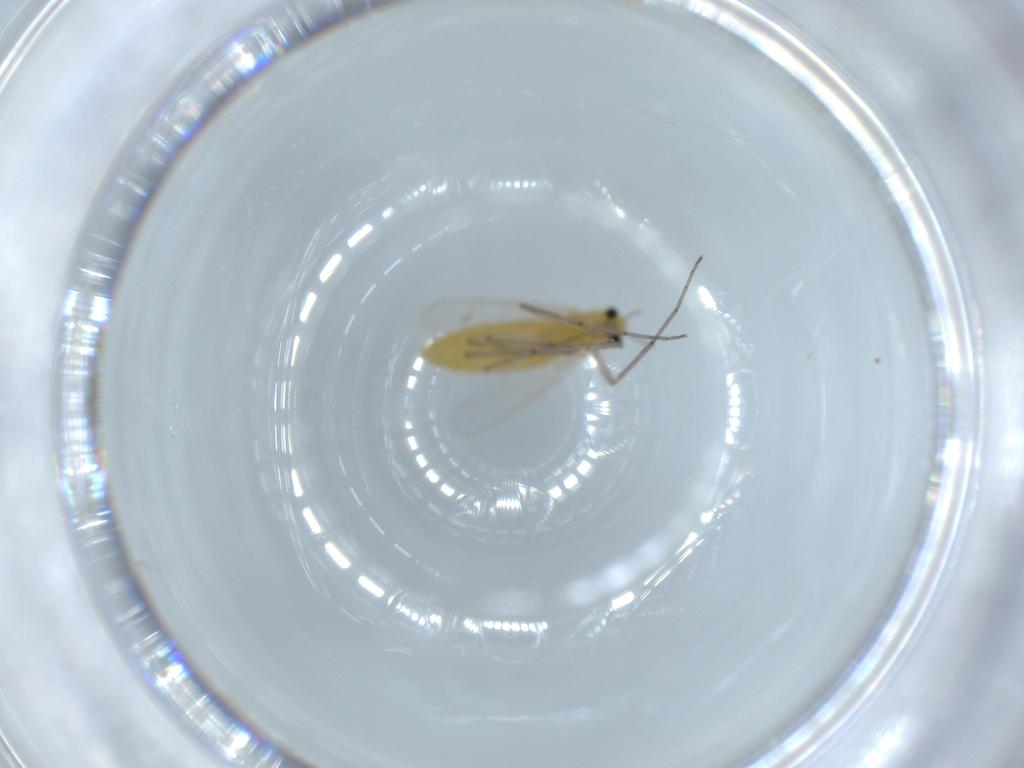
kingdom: Animalia
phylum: Arthropoda
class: Insecta
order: Diptera
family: Chironomidae
